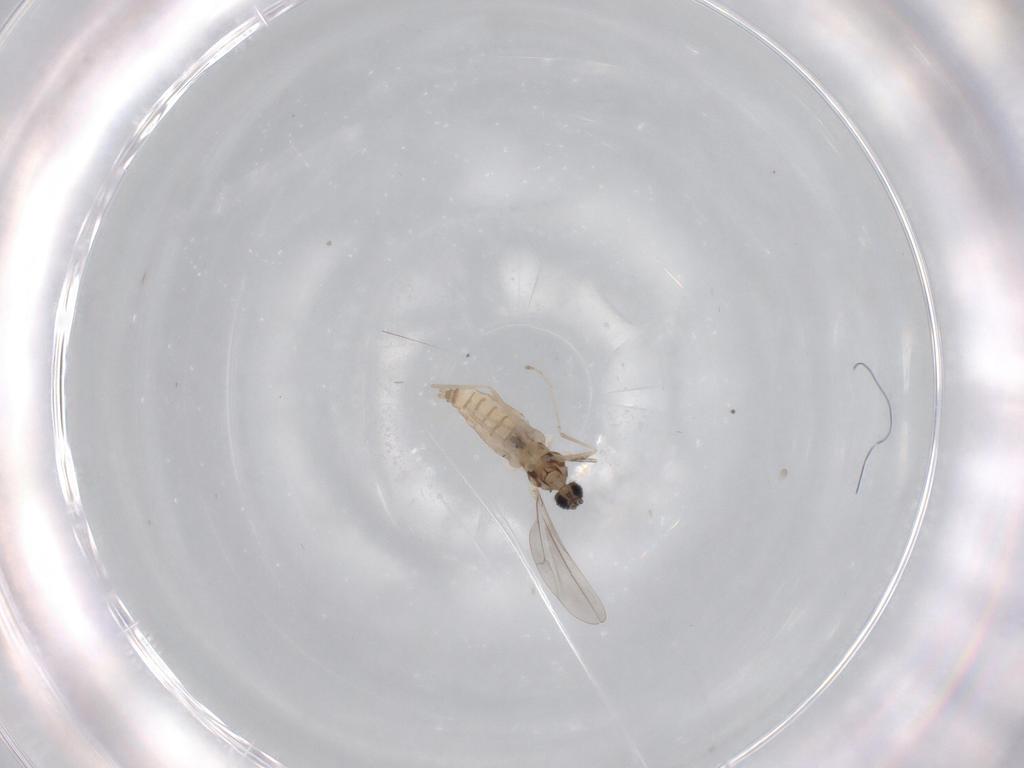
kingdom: Animalia
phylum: Arthropoda
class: Insecta
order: Diptera
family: Cecidomyiidae
